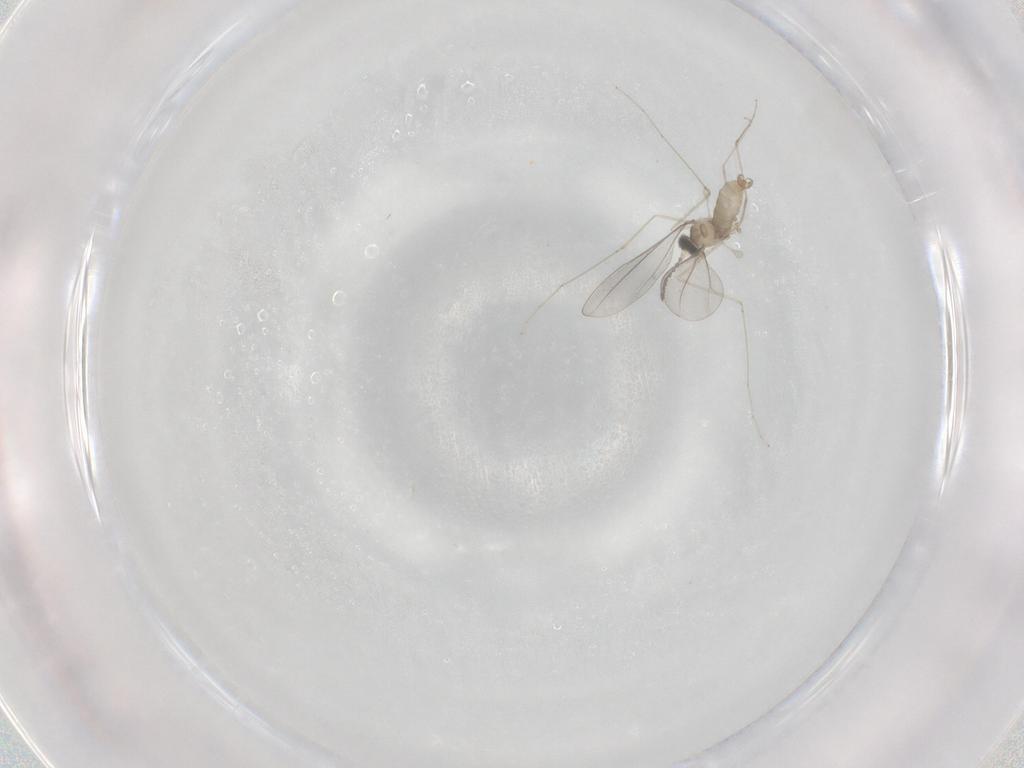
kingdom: Animalia
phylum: Arthropoda
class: Insecta
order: Diptera
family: Cecidomyiidae
